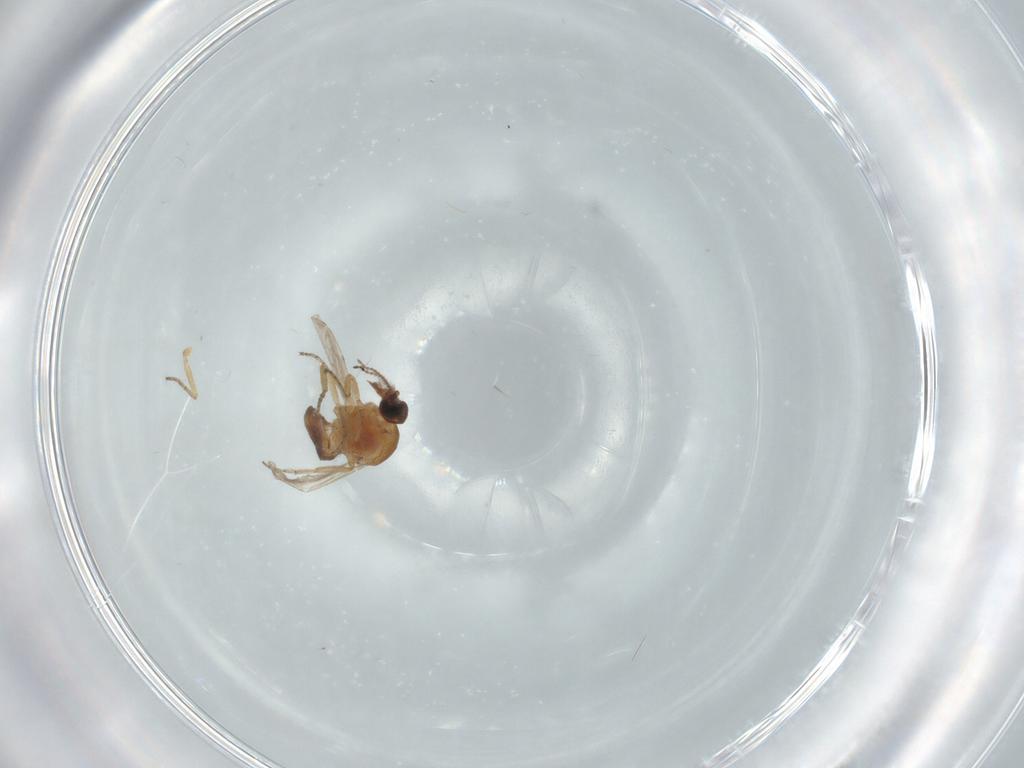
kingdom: Animalia
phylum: Arthropoda
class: Insecta
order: Diptera
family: Ceratopogonidae
